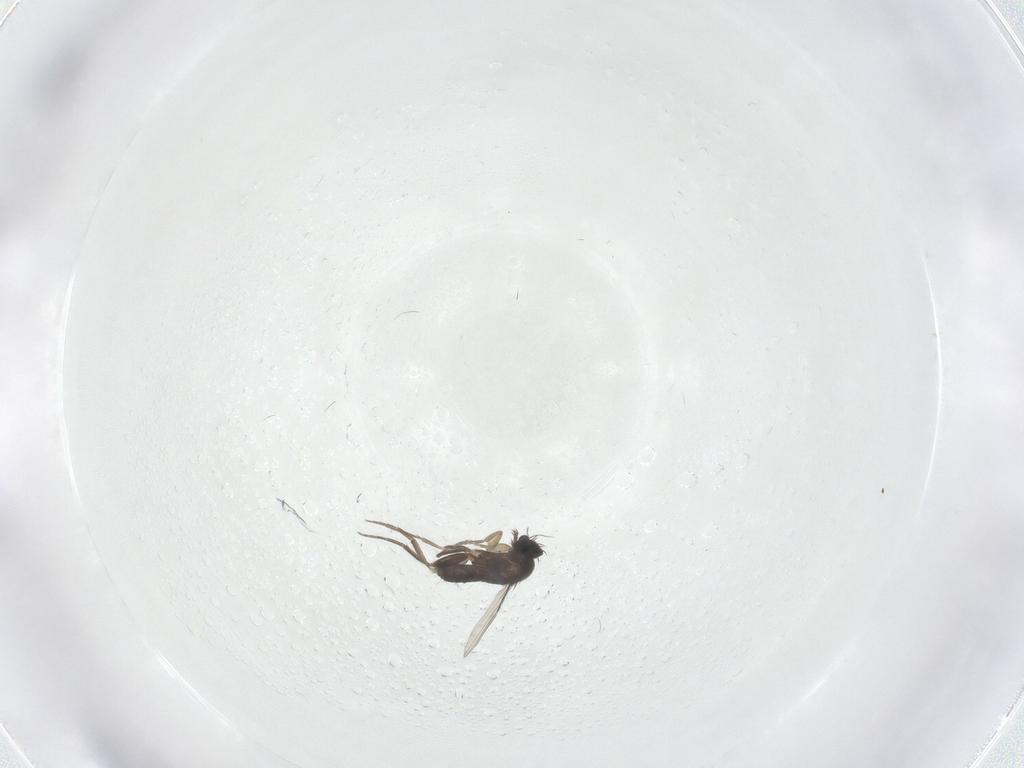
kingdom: Animalia
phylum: Arthropoda
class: Insecta
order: Diptera
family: Phoridae
